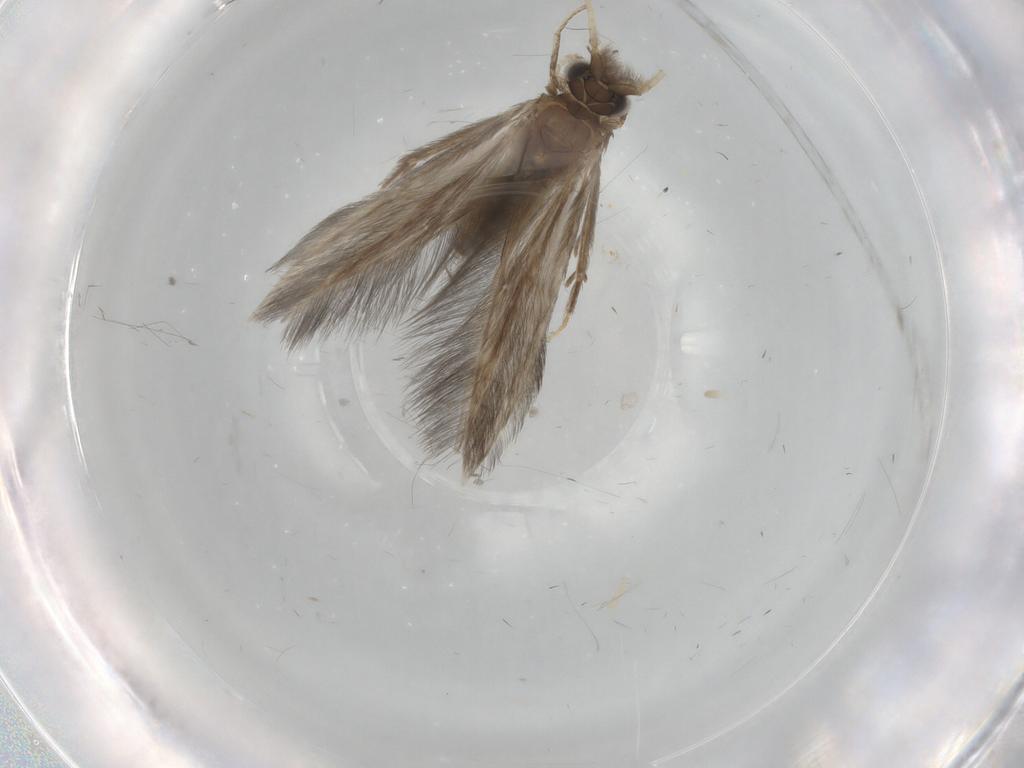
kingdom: Animalia
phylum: Arthropoda
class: Insecta
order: Trichoptera
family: Hydroptilidae
